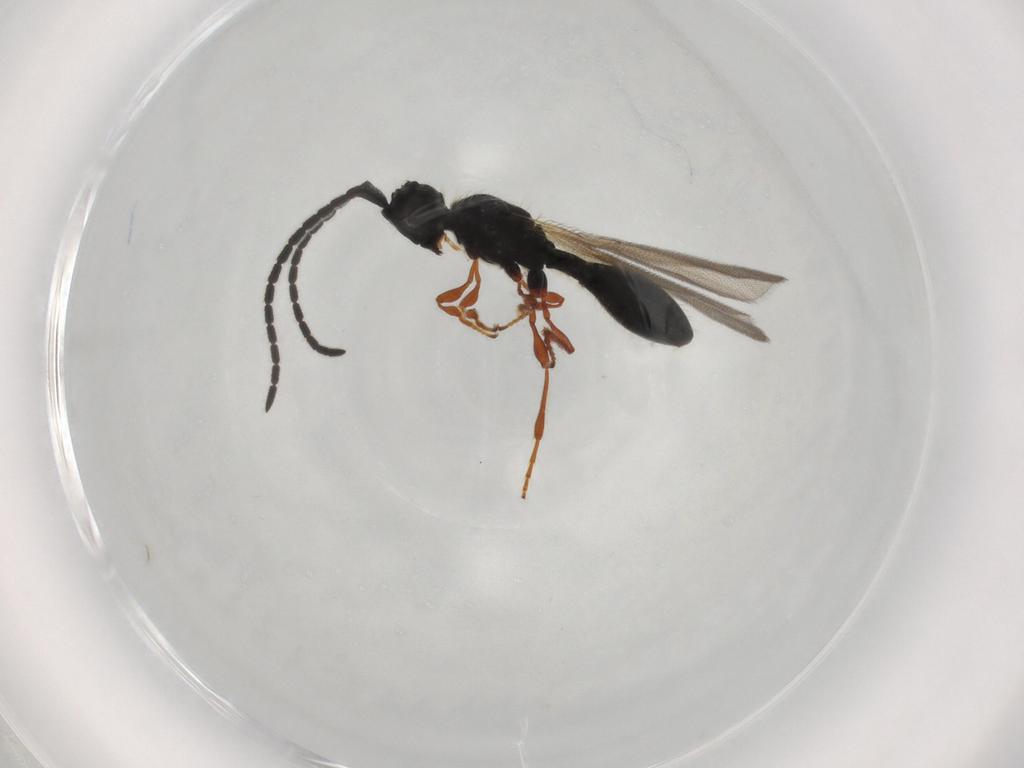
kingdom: Animalia
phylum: Arthropoda
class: Insecta
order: Hymenoptera
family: Diapriidae
